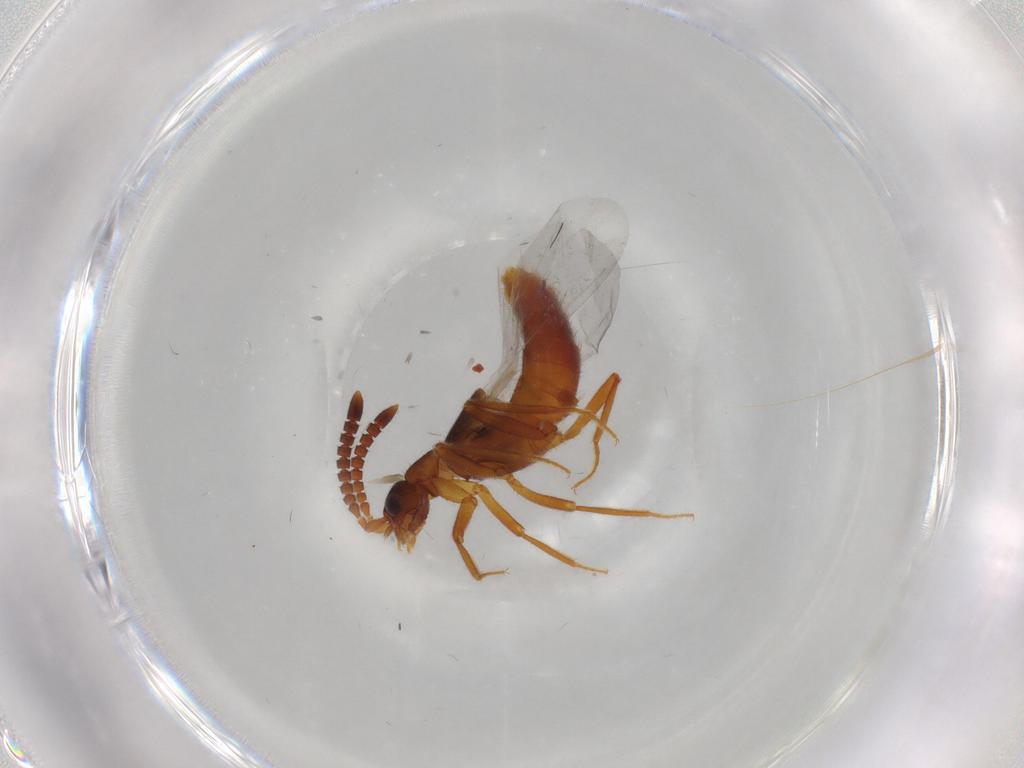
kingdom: Animalia
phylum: Arthropoda
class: Insecta
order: Coleoptera
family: Staphylinidae
